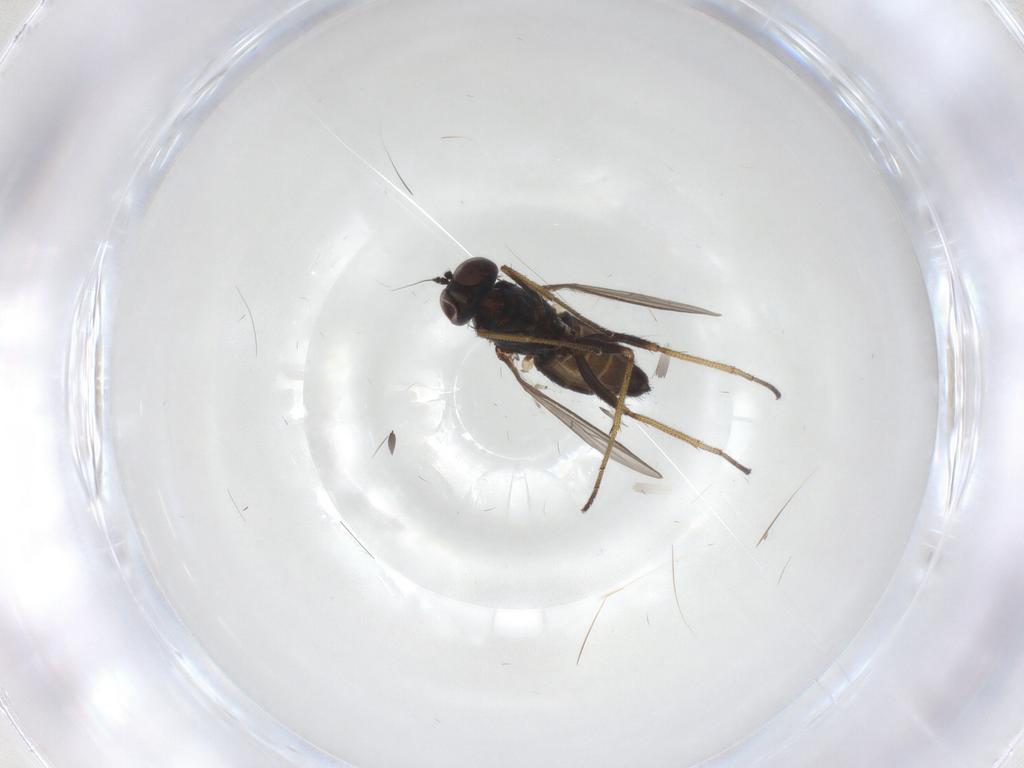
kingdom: Animalia
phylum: Arthropoda
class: Insecta
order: Diptera
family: Dolichopodidae
